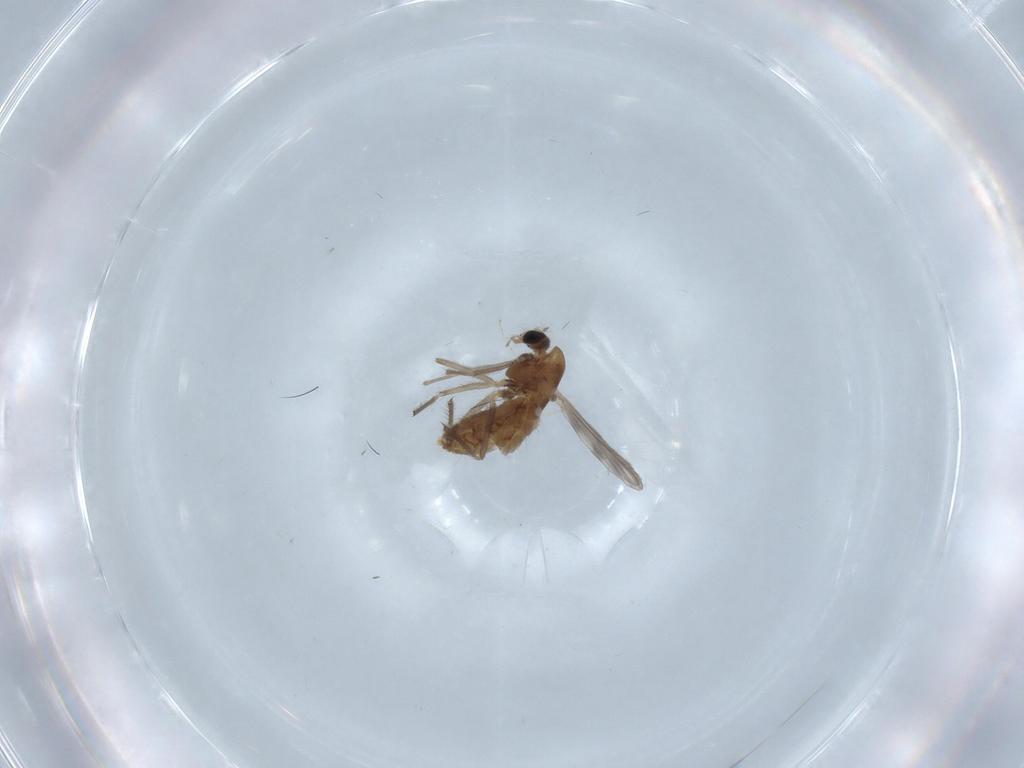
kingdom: Animalia
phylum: Arthropoda
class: Insecta
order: Diptera
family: Chironomidae
